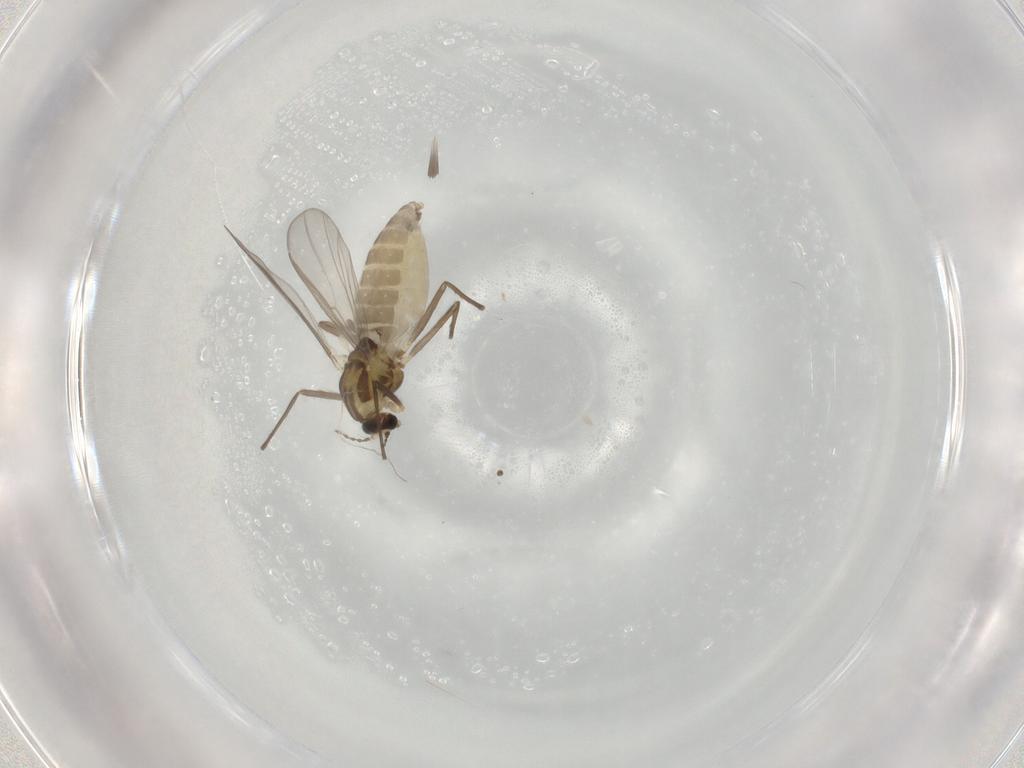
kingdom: Animalia
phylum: Arthropoda
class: Insecta
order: Diptera
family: Chironomidae
